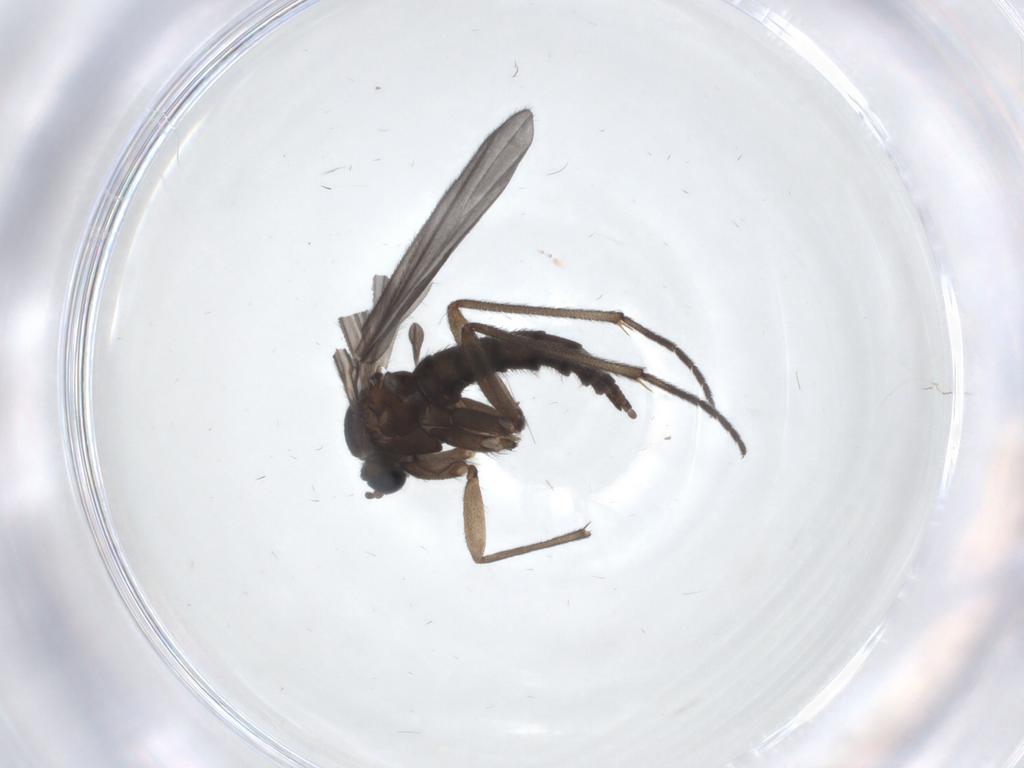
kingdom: Animalia
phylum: Arthropoda
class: Insecta
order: Diptera
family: Sciaridae
